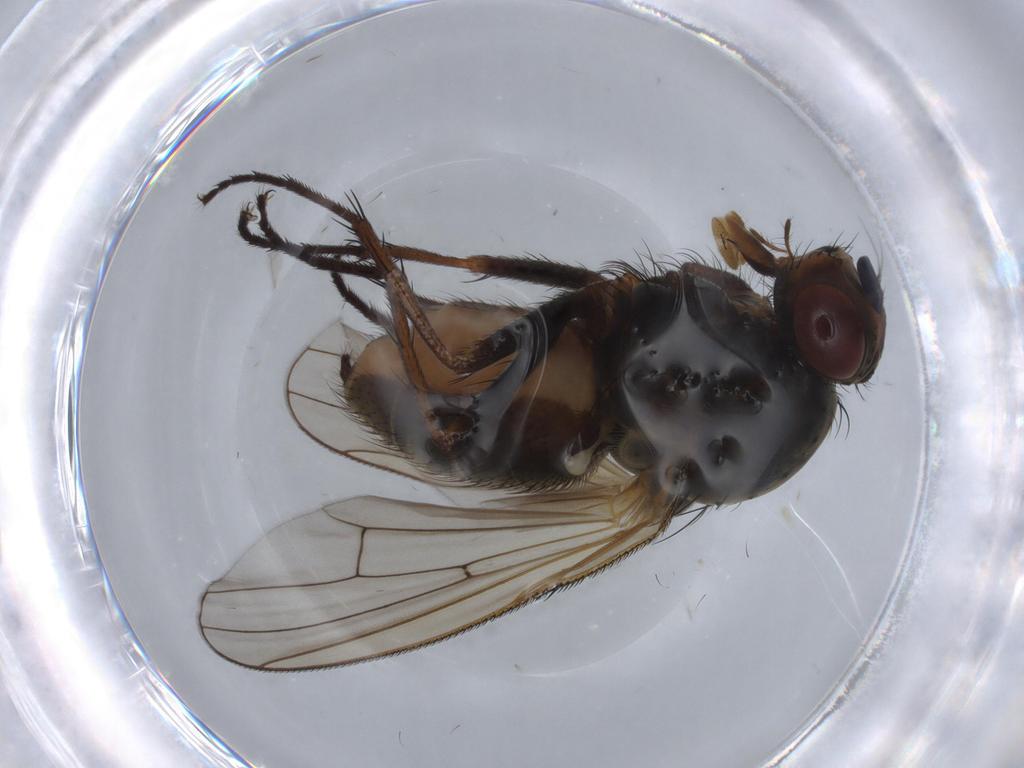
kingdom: Animalia
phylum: Arthropoda
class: Insecta
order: Diptera
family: Anthomyiidae
